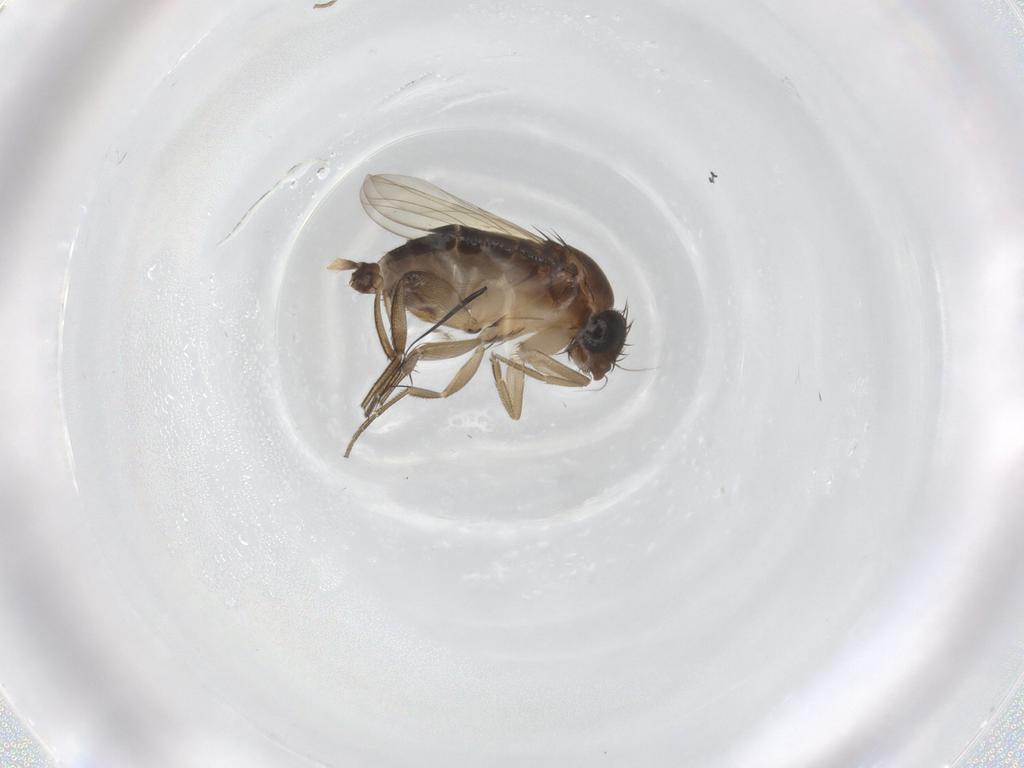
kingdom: Animalia
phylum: Arthropoda
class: Insecta
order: Diptera
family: Phoridae
